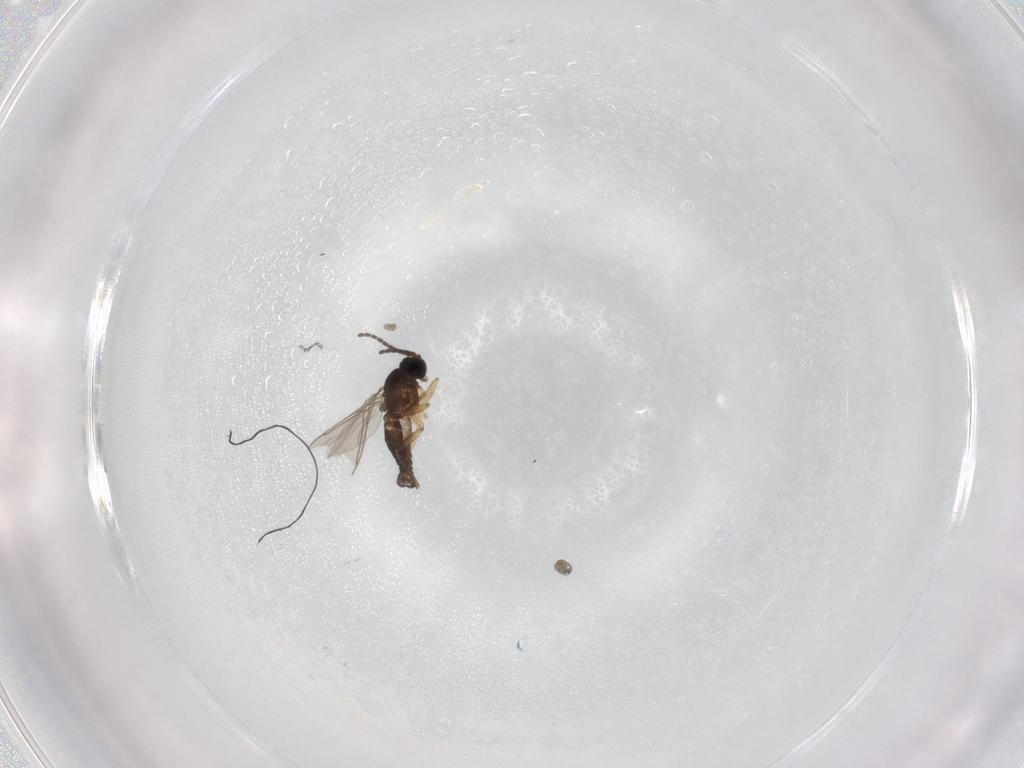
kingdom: Animalia
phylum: Arthropoda
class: Insecta
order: Diptera
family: Sciaridae
